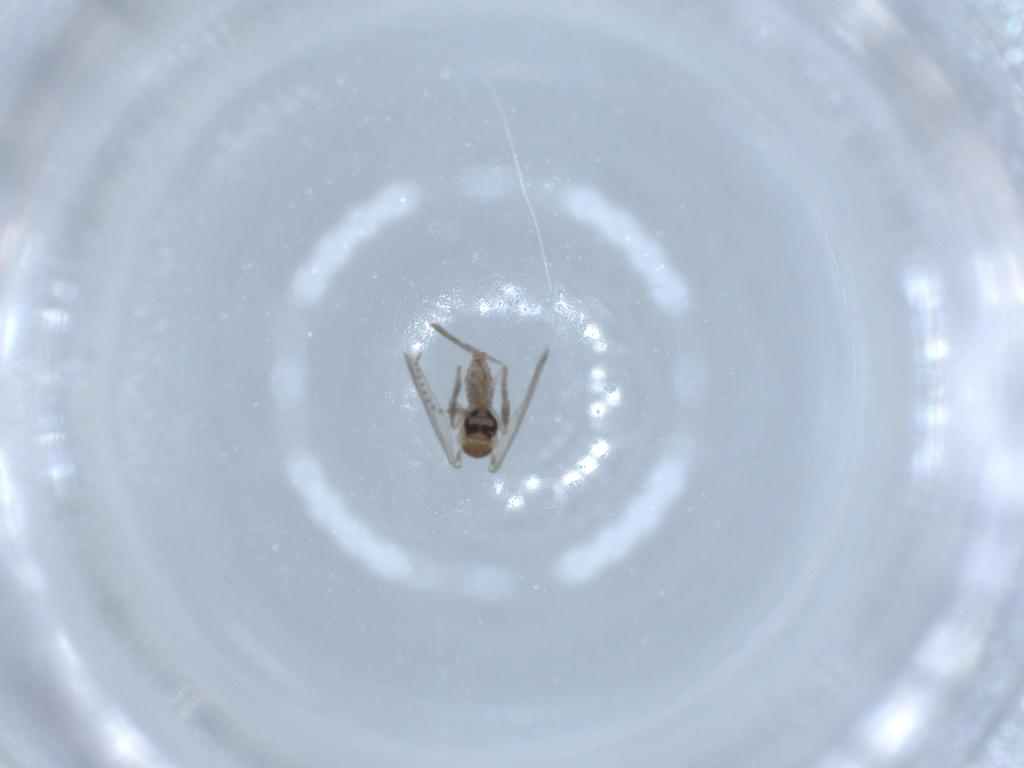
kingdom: Animalia
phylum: Arthropoda
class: Insecta
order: Diptera
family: Psychodidae
